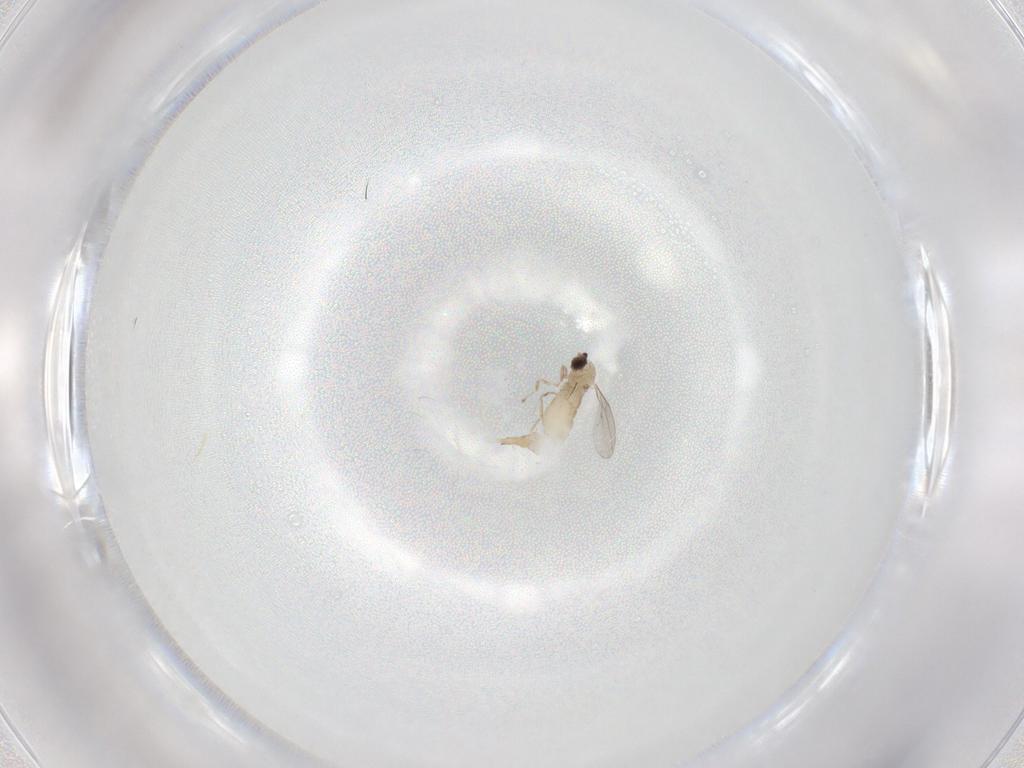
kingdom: Animalia
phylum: Arthropoda
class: Insecta
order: Diptera
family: Cecidomyiidae
